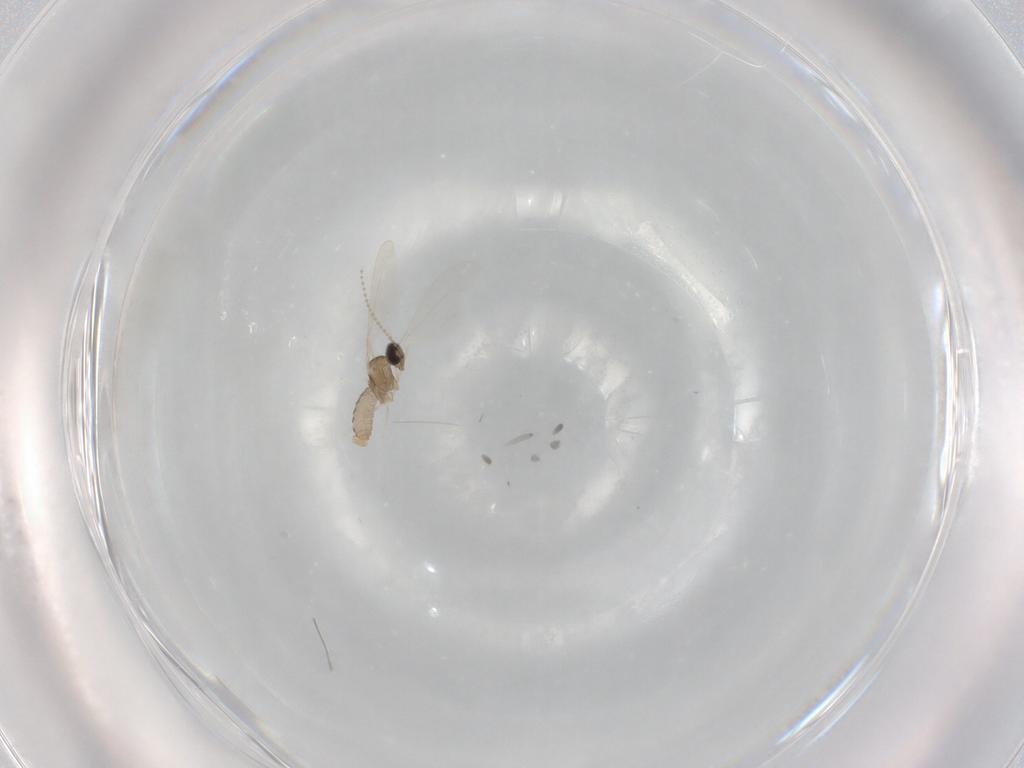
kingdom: Animalia
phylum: Arthropoda
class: Insecta
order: Diptera
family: Cecidomyiidae
